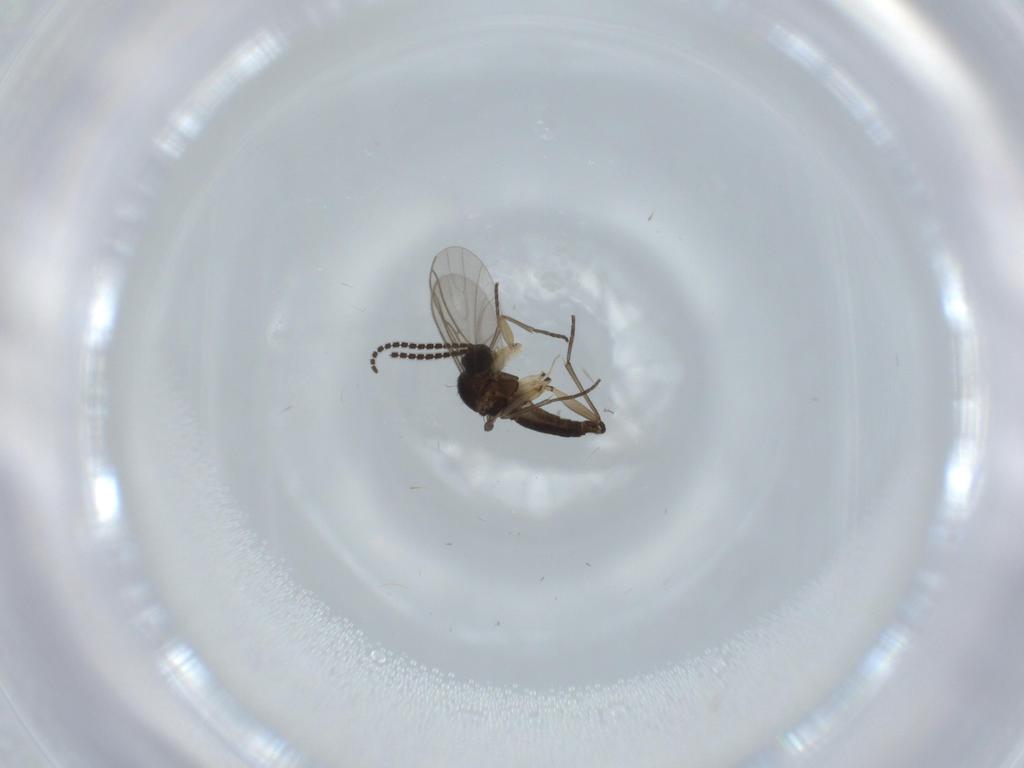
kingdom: Animalia
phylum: Arthropoda
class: Insecta
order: Diptera
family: Sciaridae
